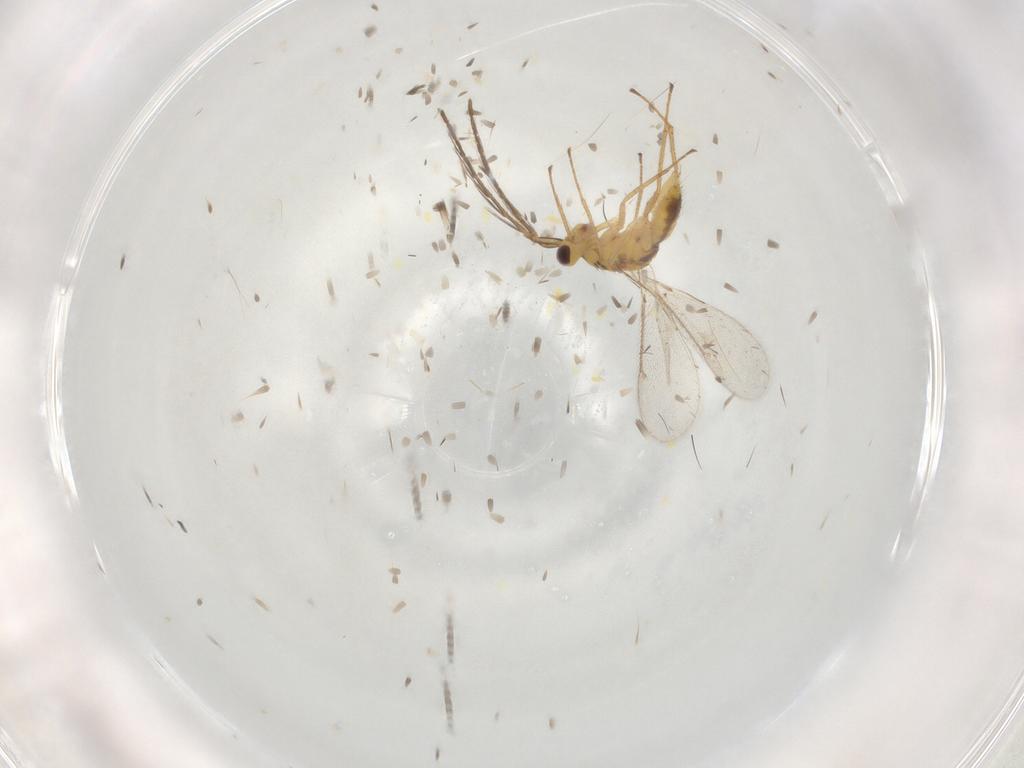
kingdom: Animalia
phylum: Arthropoda
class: Insecta
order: Hymenoptera
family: Eulophidae
